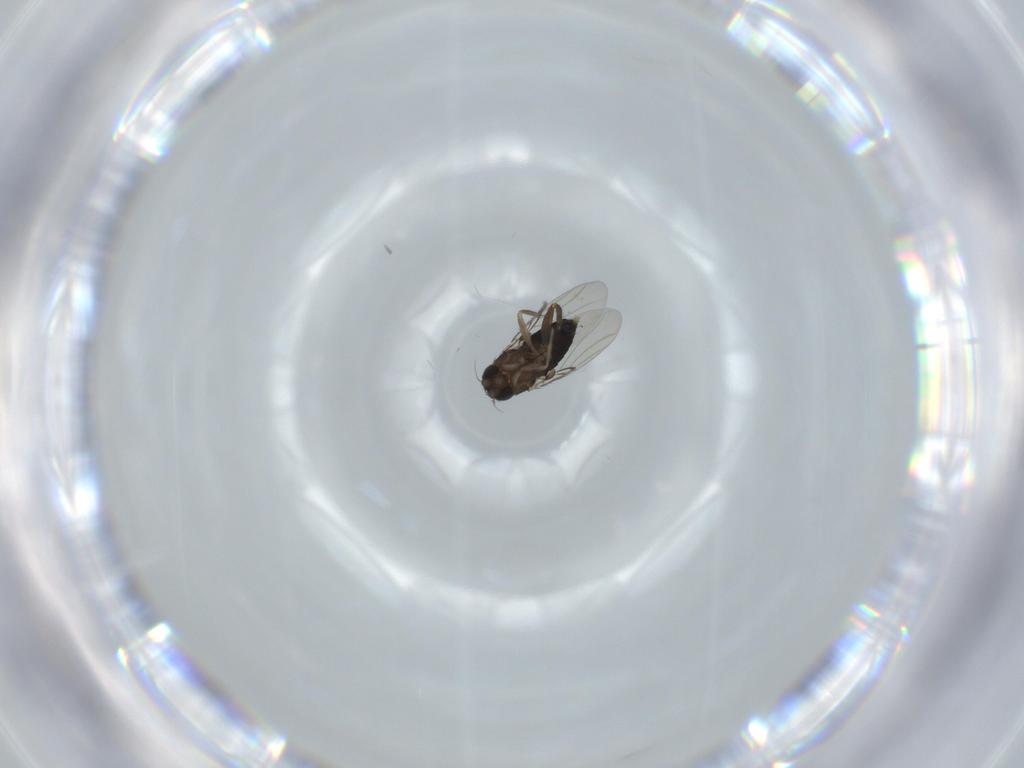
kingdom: Animalia
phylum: Arthropoda
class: Insecta
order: Diptera
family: Phoridae
